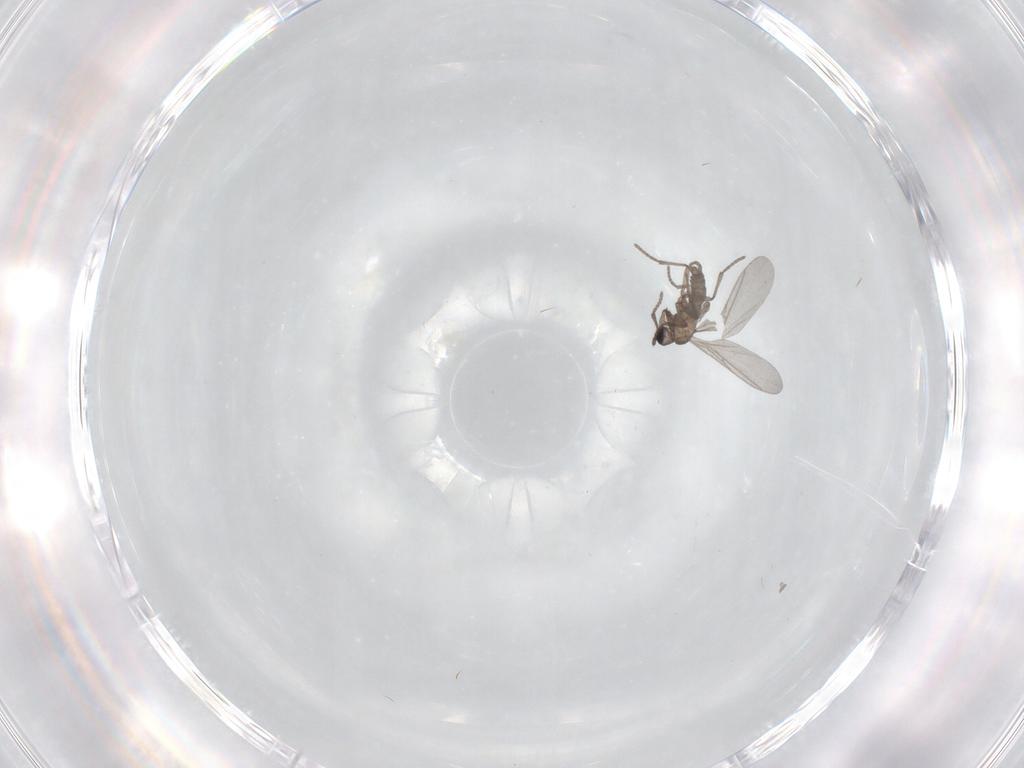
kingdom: Animalia
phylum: Arthropoda
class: Insecta
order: Diptera
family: Sciaridae
